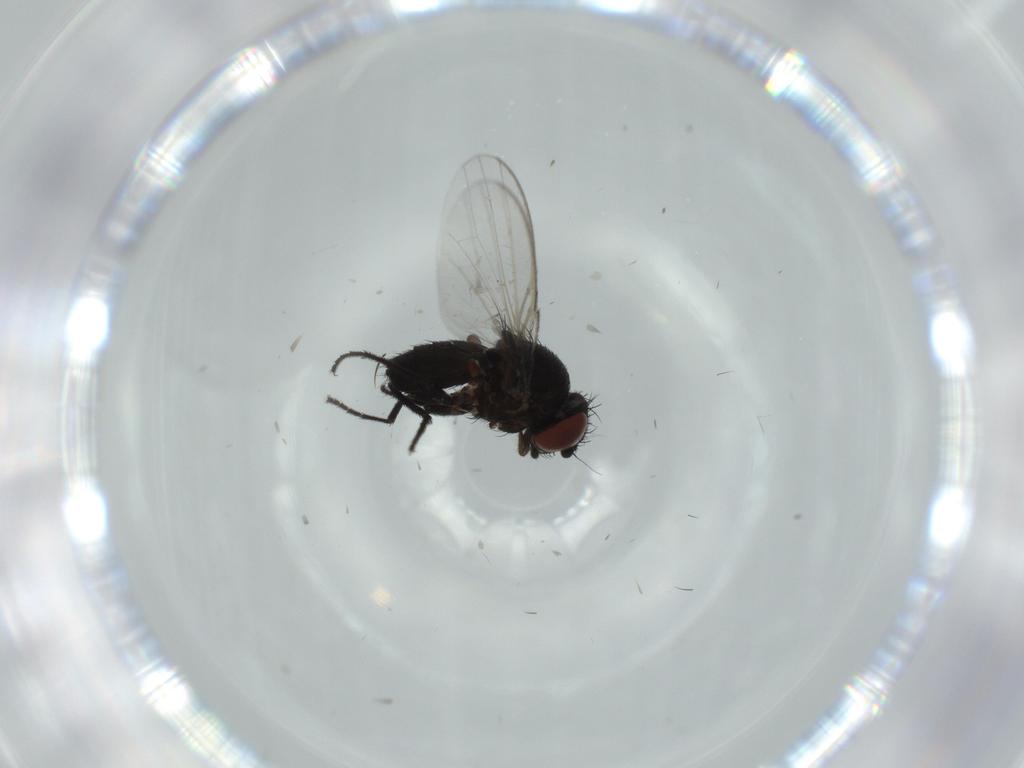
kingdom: Animalia
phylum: Arthropoda
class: Insecta
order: Diptera
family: Milichiidae
